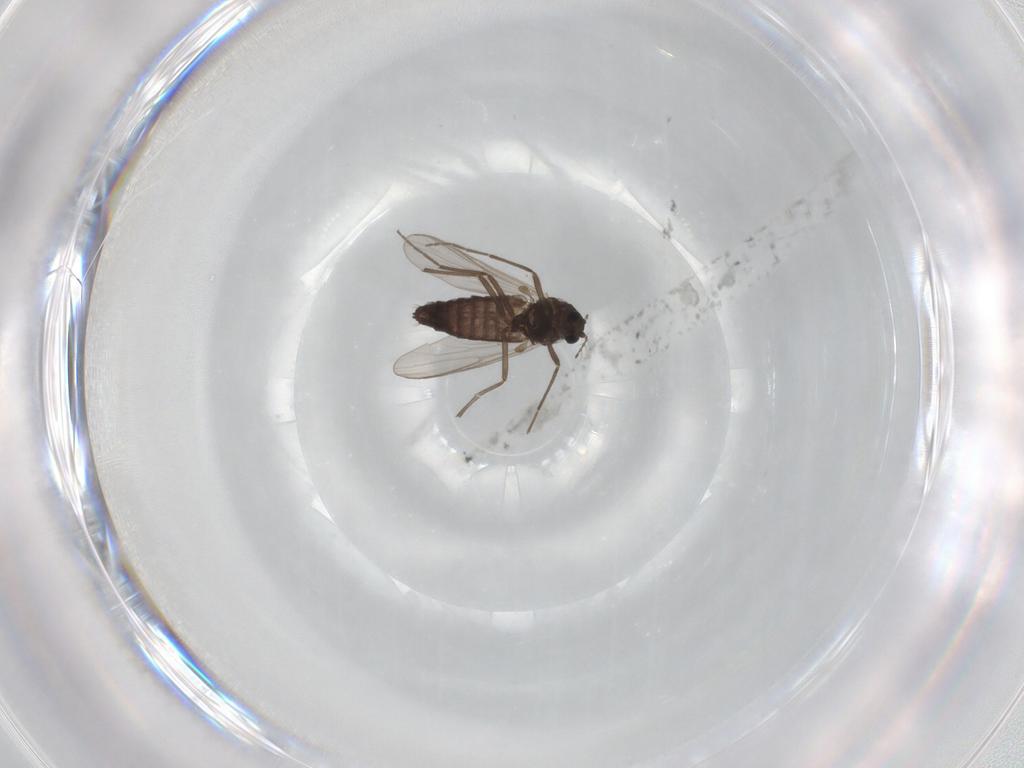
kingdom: Animalia
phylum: Arthropoda
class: Insecta
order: Diptera
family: Chironomidae
